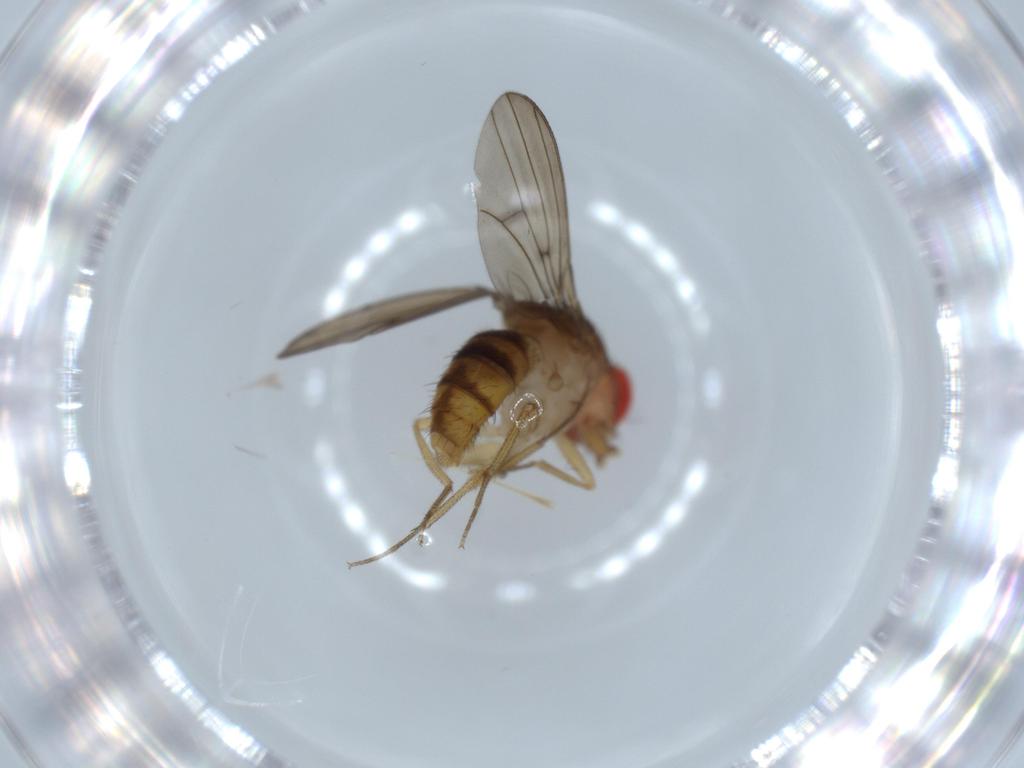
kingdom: Animalia
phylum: Arthropoda
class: Insecta
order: Diptera
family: Drosophilidae
